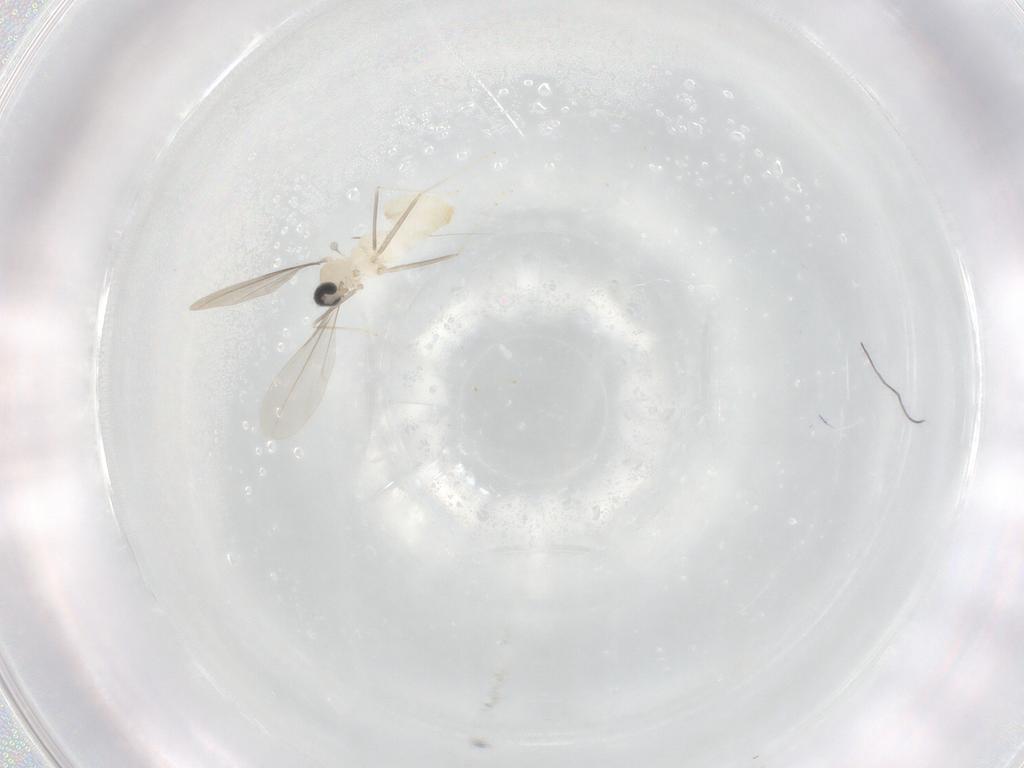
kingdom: Animalia
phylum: Arthropoda
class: Insecta
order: Diptera
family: Cecidomyiidae
